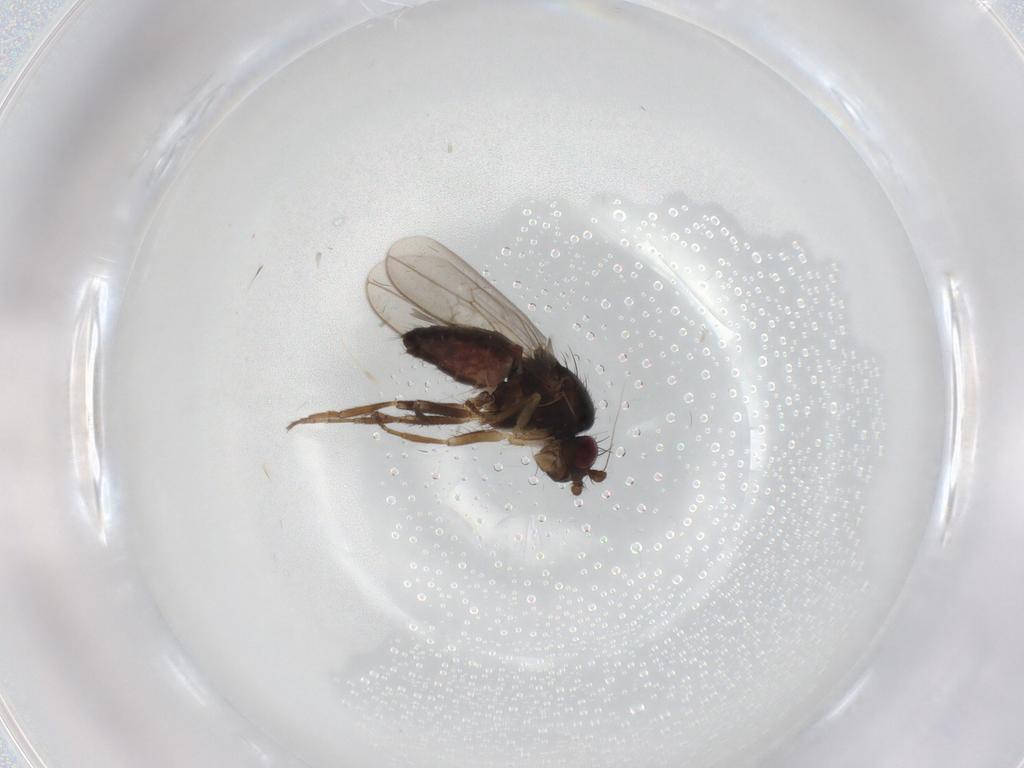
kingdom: Animalia
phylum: Arthropoda
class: Insecta
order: Diptera
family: Sphaeroceridae
